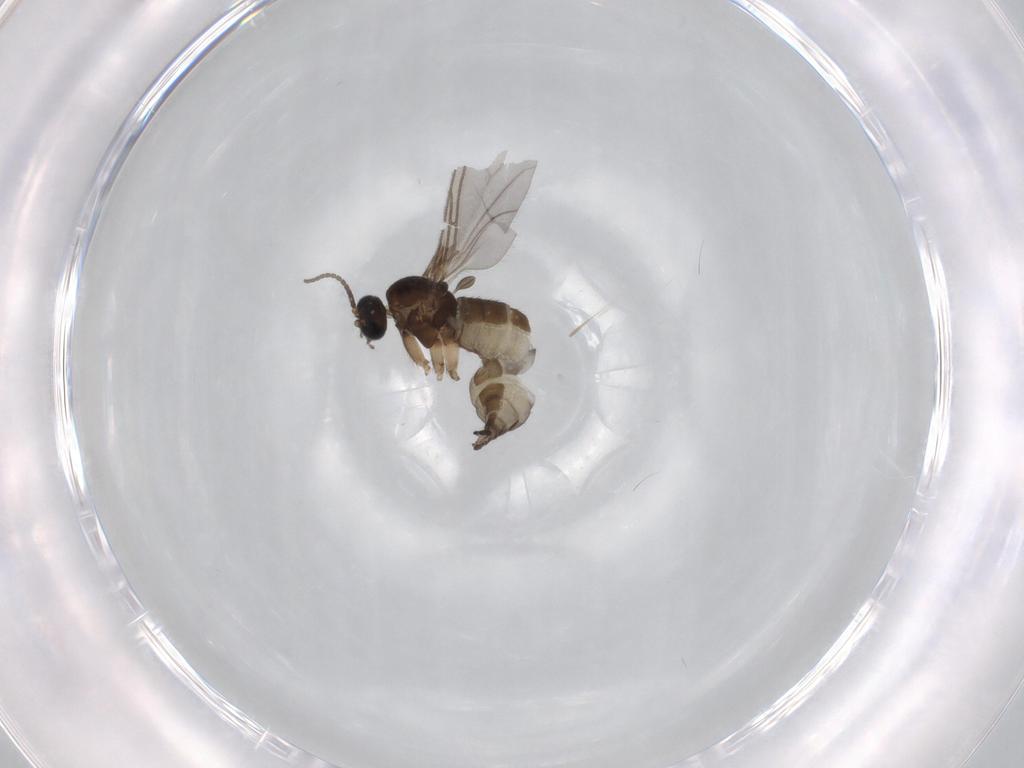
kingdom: Animalia
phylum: Arthropoda
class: Insecta
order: Diptera
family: Sciaridae
